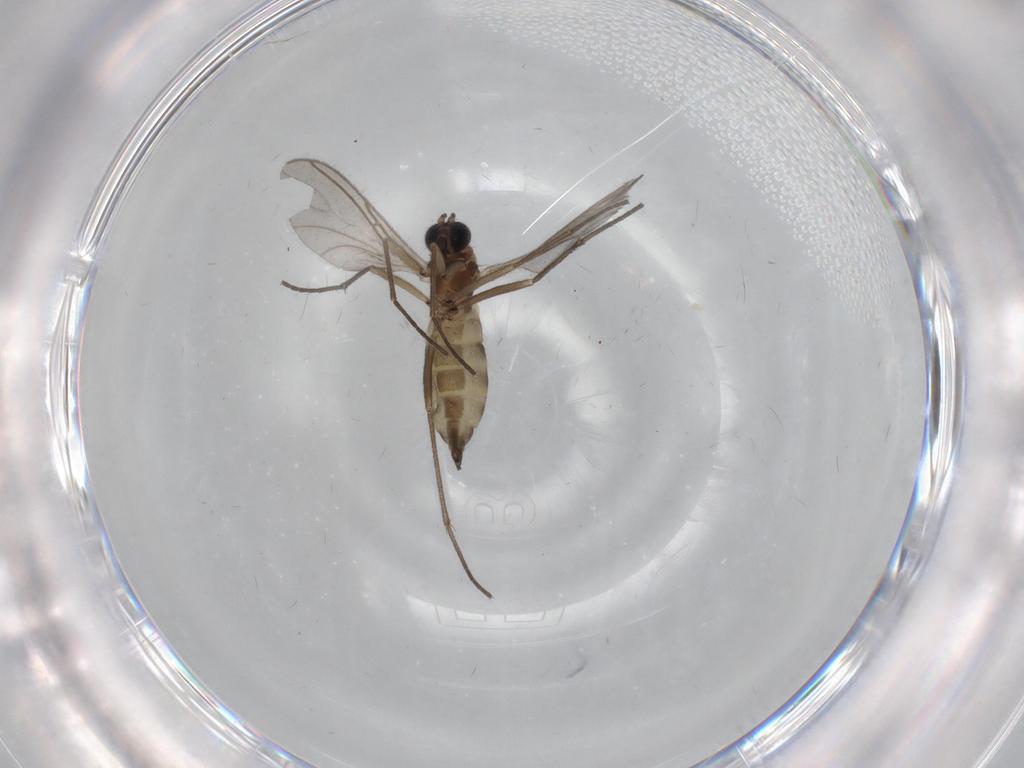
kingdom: Animalia
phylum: Arthropoda
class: Insecta
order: Diptera
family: Sciaridae
